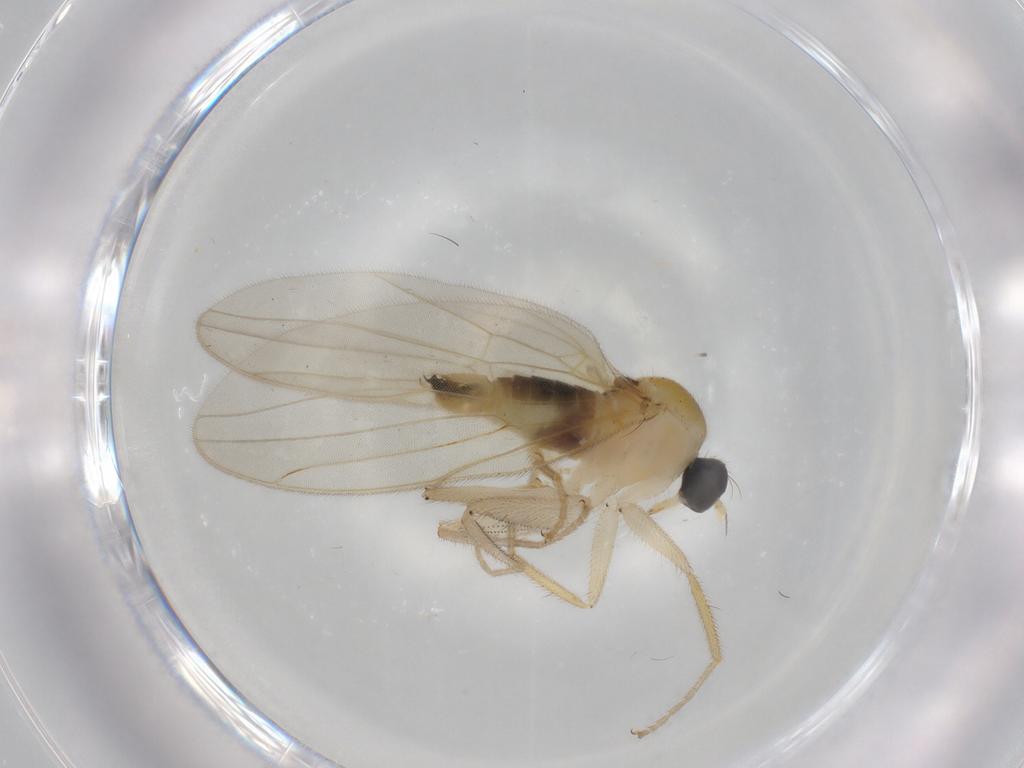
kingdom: Animalia
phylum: Arthropoda
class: Insecta
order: Diptera
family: Hybotidae
